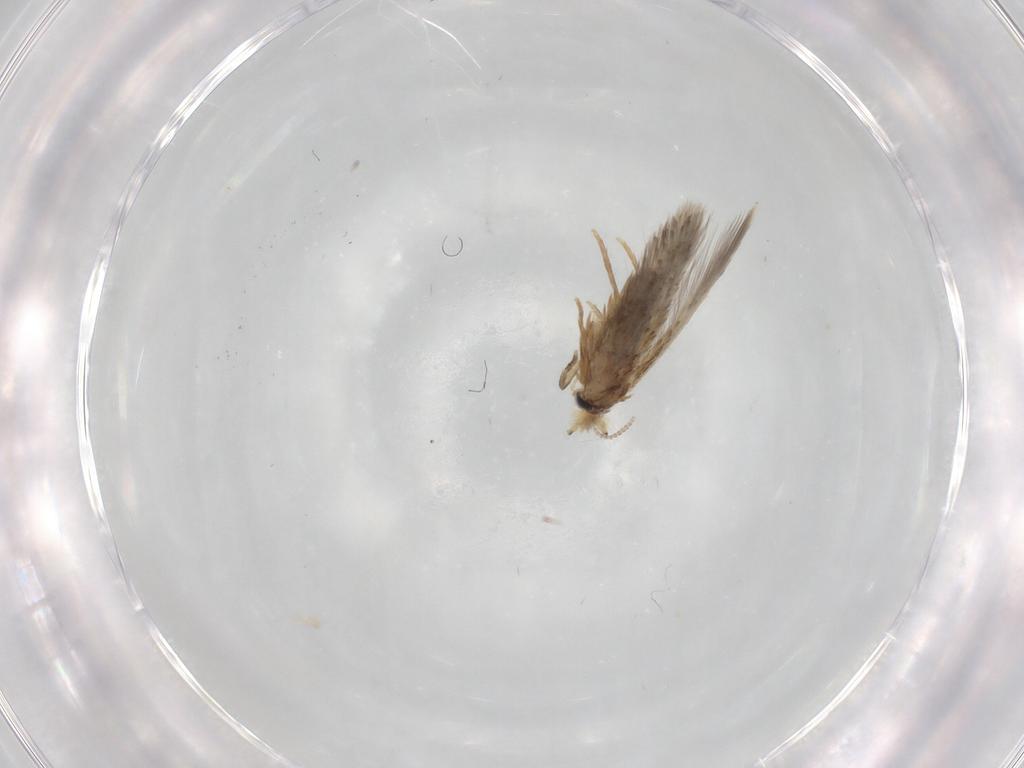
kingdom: Animalia
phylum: Arthropoda
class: Insecta
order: Lepidoptera
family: Nepticulidae
